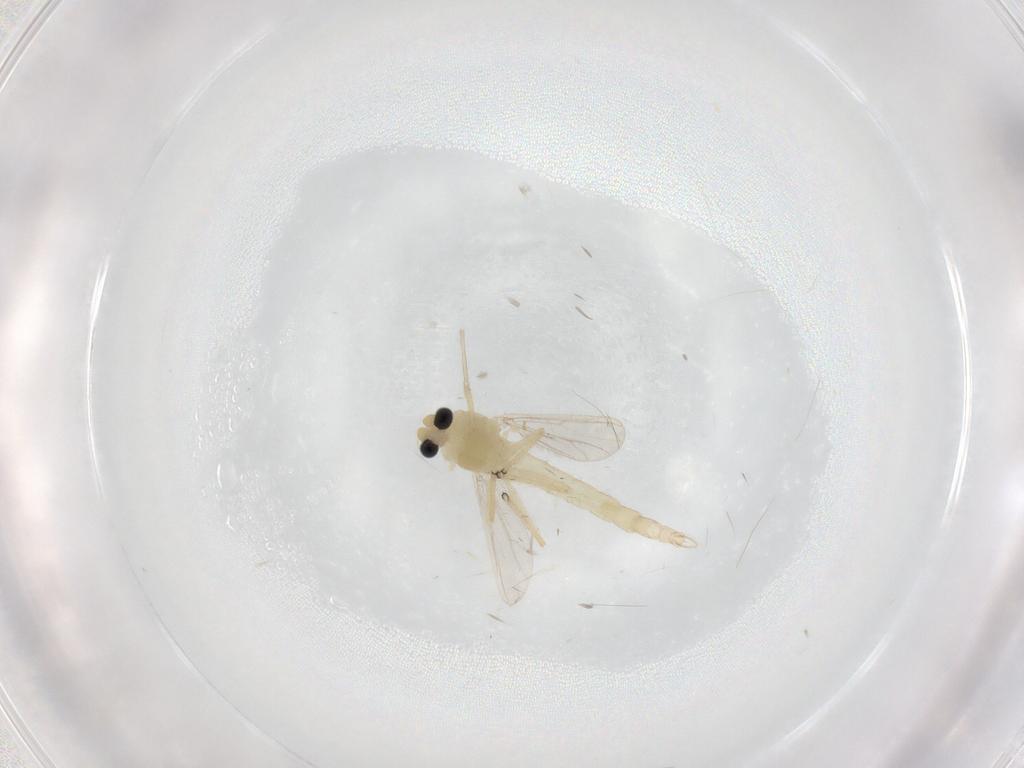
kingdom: Animalia
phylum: Arthropoda
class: Insecta
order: Diptera
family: Chironomidae
